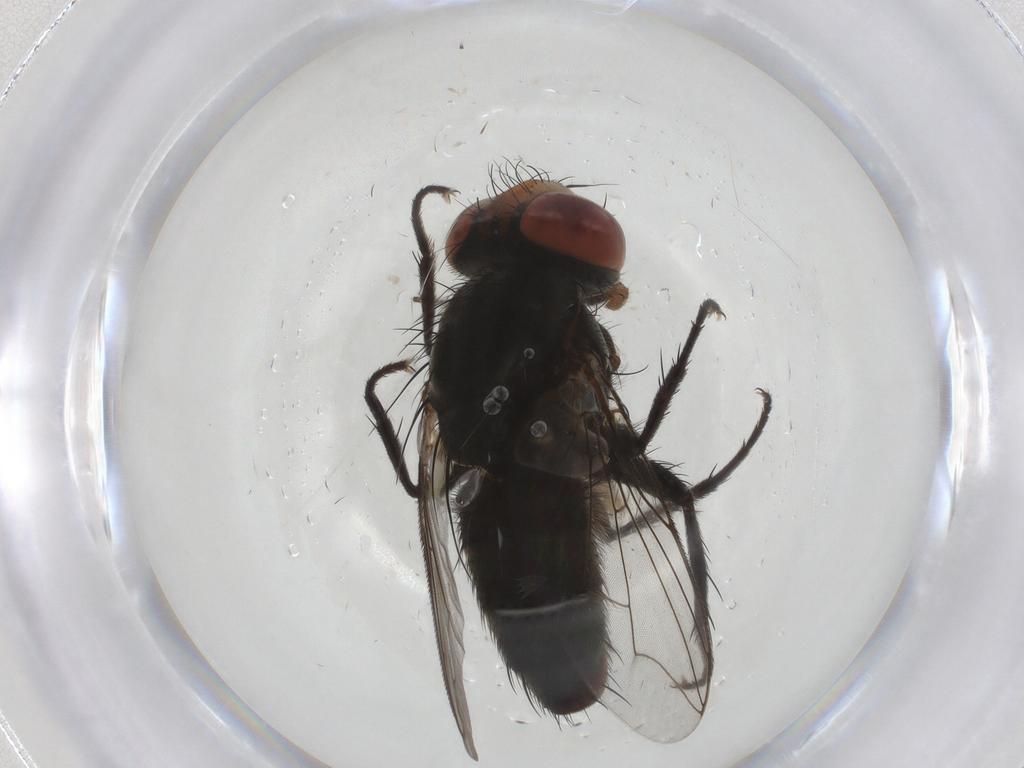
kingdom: Animalia
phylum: Arthropoda
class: Insecta
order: Diptera
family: Sarcophagidae
